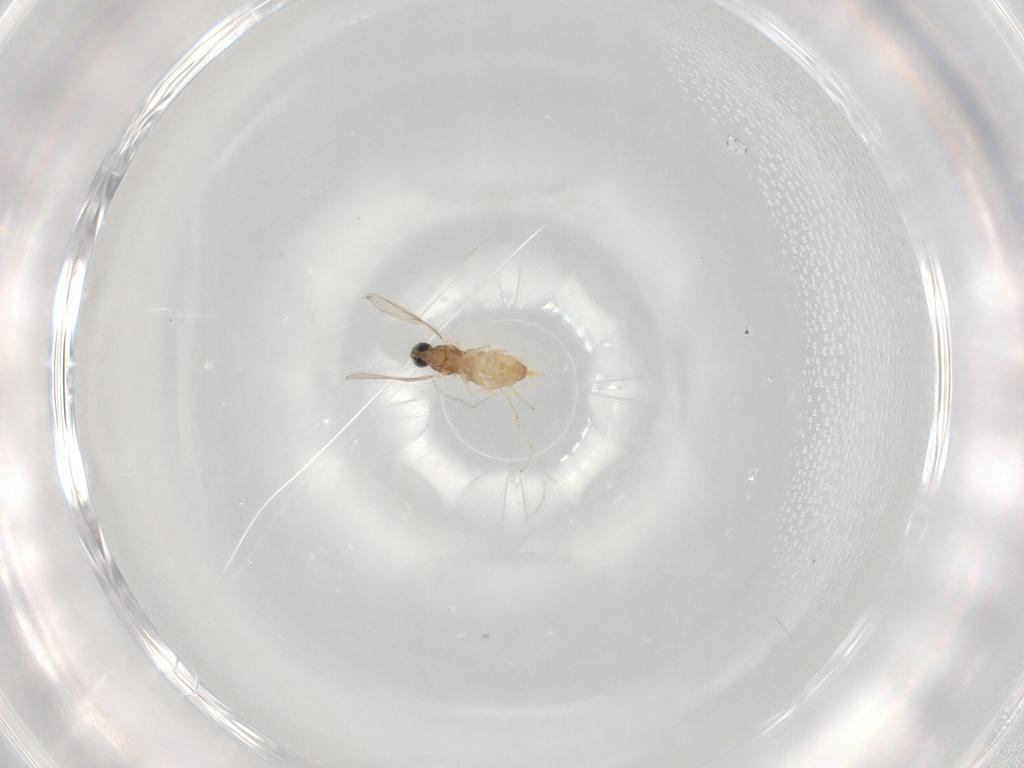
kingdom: Animalia
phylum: Arthropoda
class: Insecta
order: Diptera
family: Cecidomyiidae
